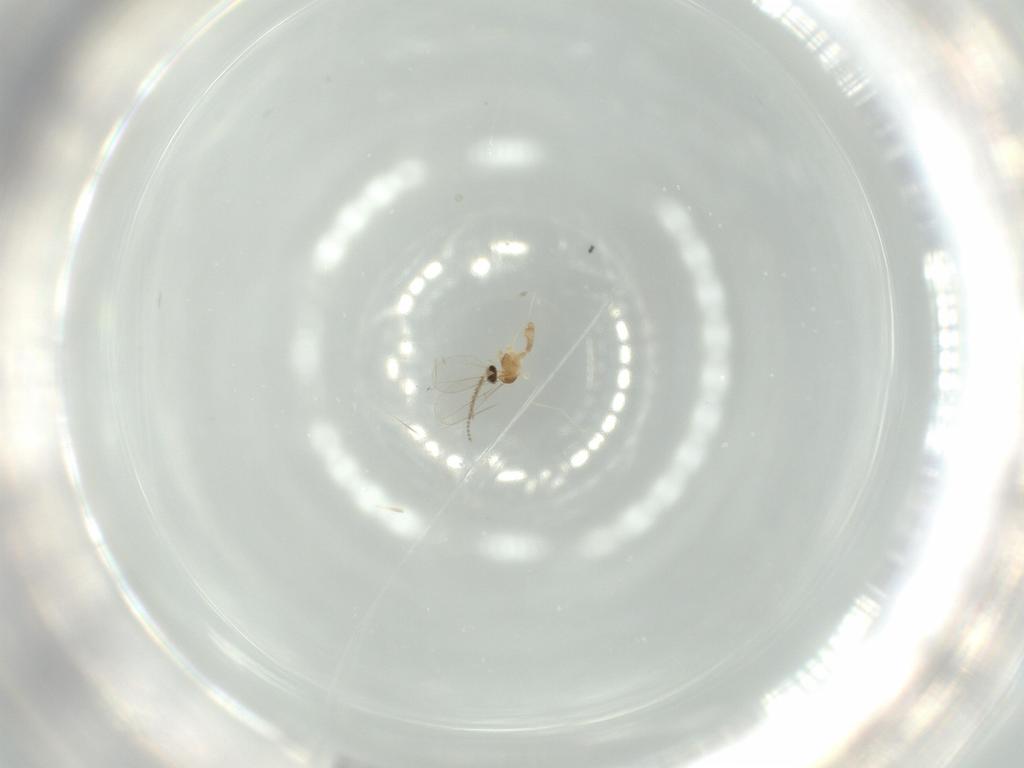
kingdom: Animalia
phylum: Arthropoda
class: Insecta
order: Diptera
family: Cecidomyiidae
